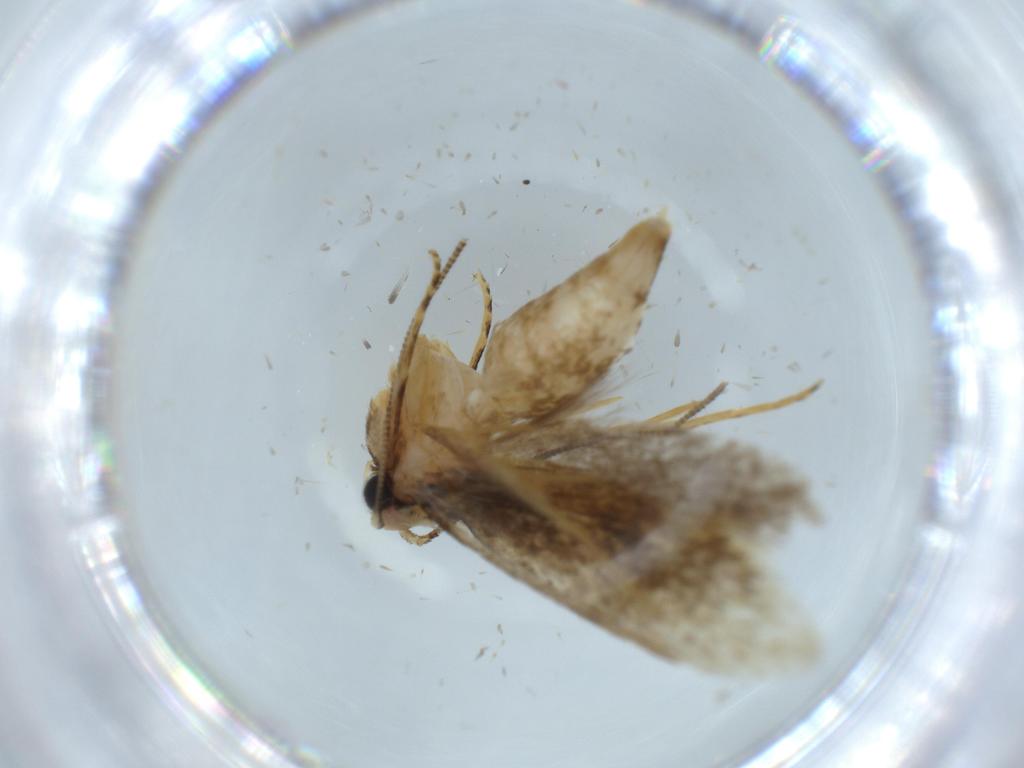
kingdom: Animalia
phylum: Arthropoda
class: Insecta
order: Lepidoptera
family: Tineidae
